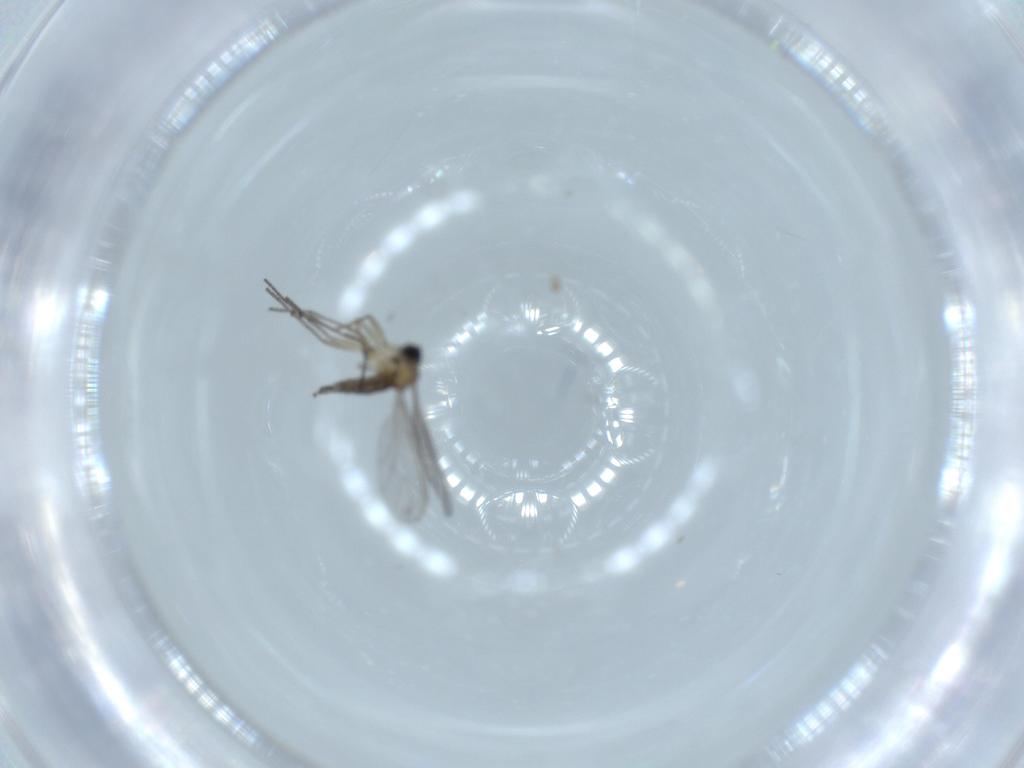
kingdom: Animalia
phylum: Arthropoda
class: Insecta
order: Diptera
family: Sciaridae
